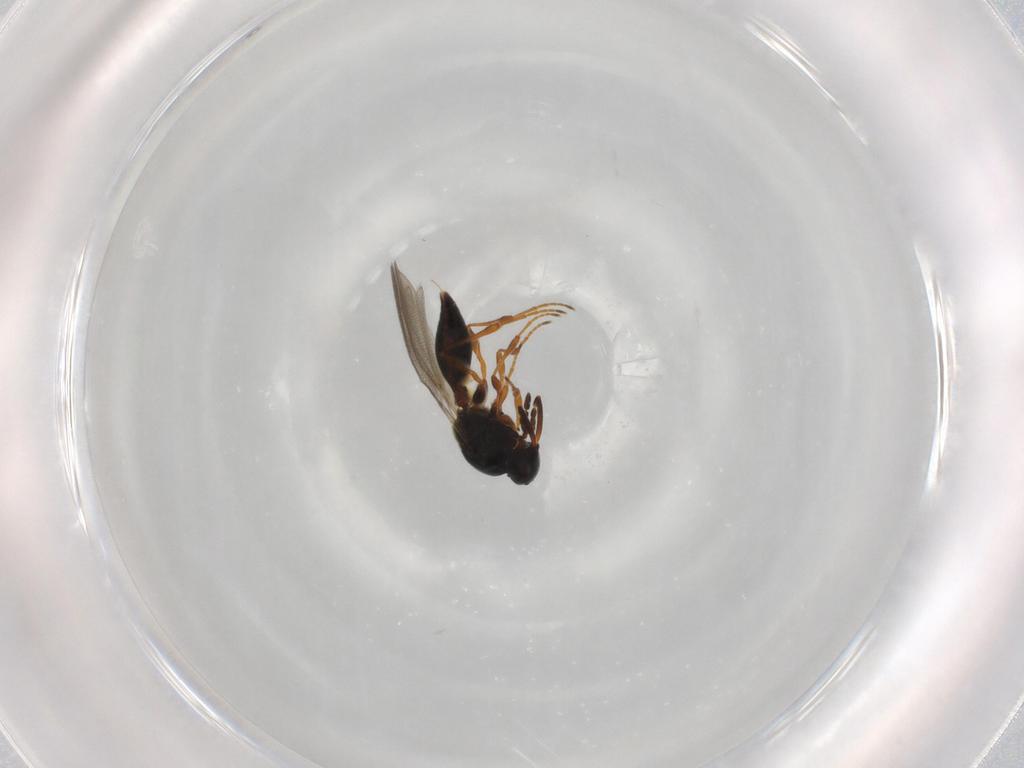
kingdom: Animalia
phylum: Arthropoda
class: Insecta
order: Hymenoptera
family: Platygastridae
